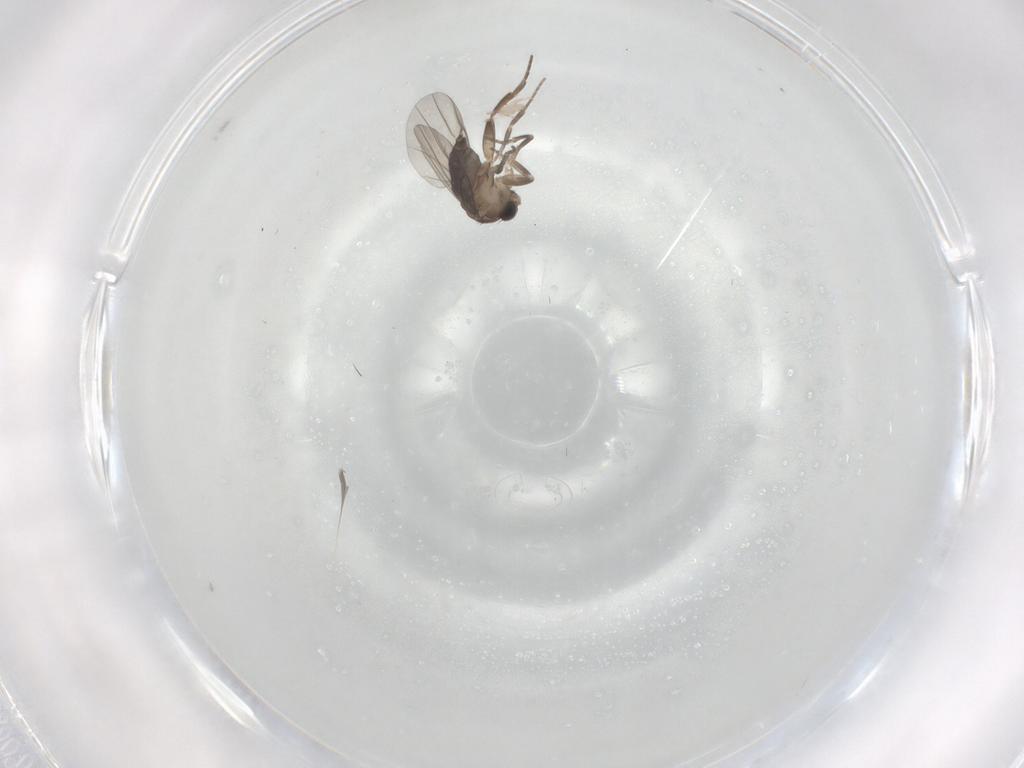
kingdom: Animalia
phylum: Arthropoda
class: Insecta
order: Diptera
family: Phoridae
